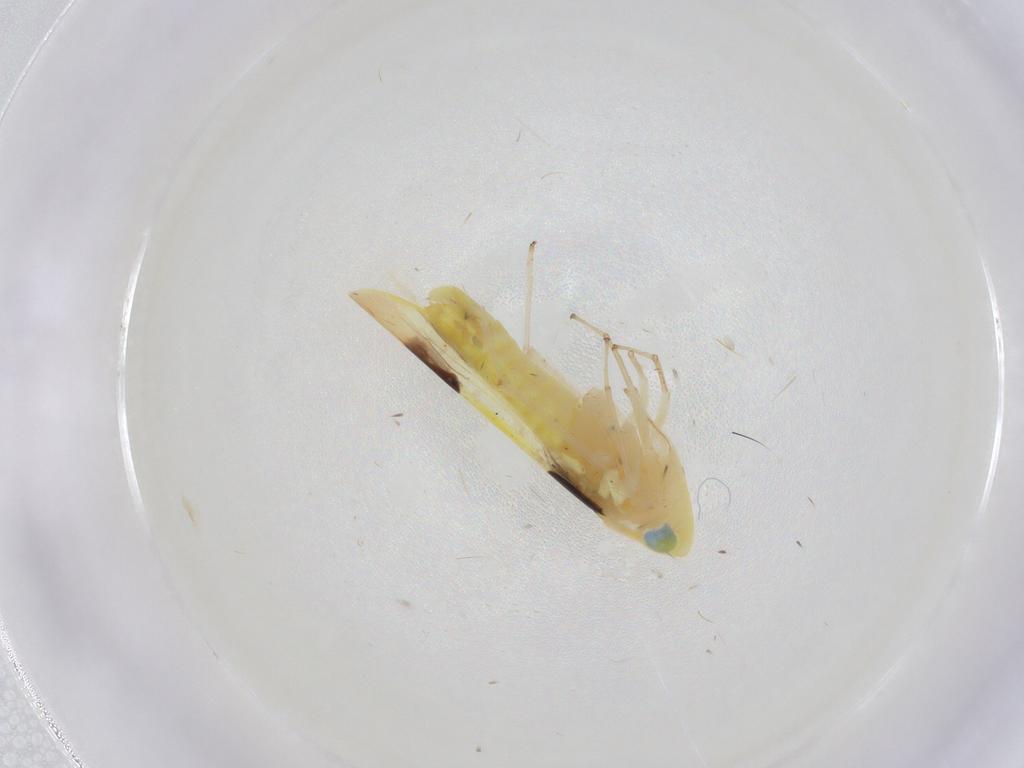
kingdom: Animalia
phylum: Arthropoda
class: Insecta
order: Hemiptera
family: Cicadellidae
